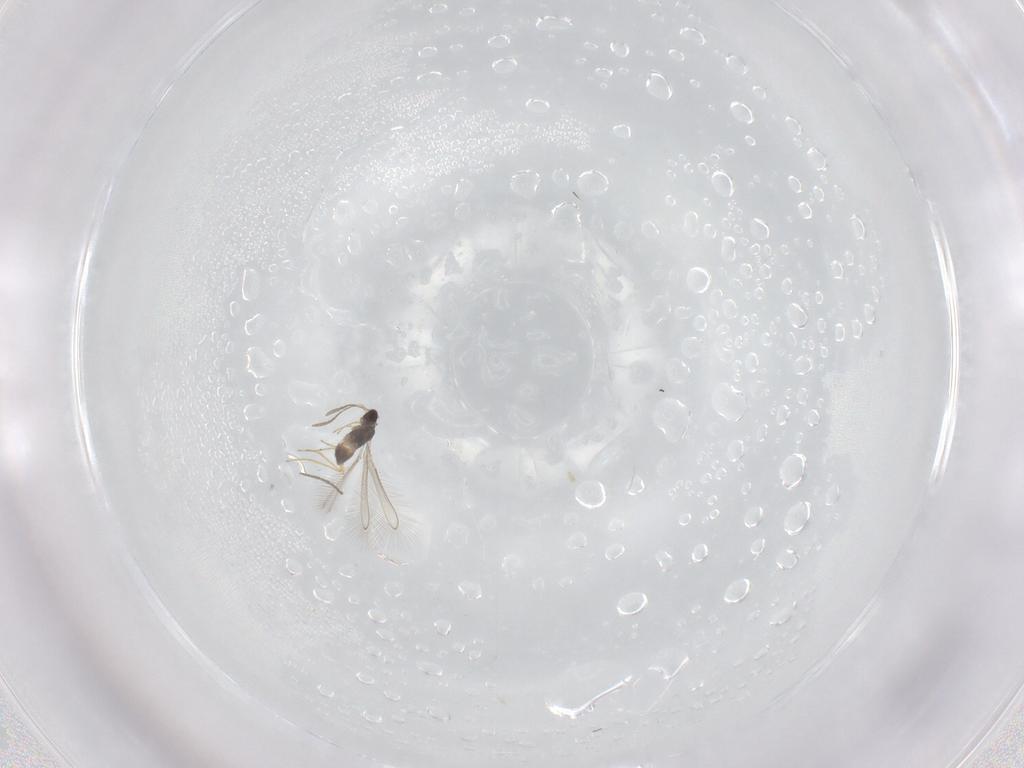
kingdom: Animalia
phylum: Arthropoda
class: Insecta
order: Hymenoptera
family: Mymaridae
